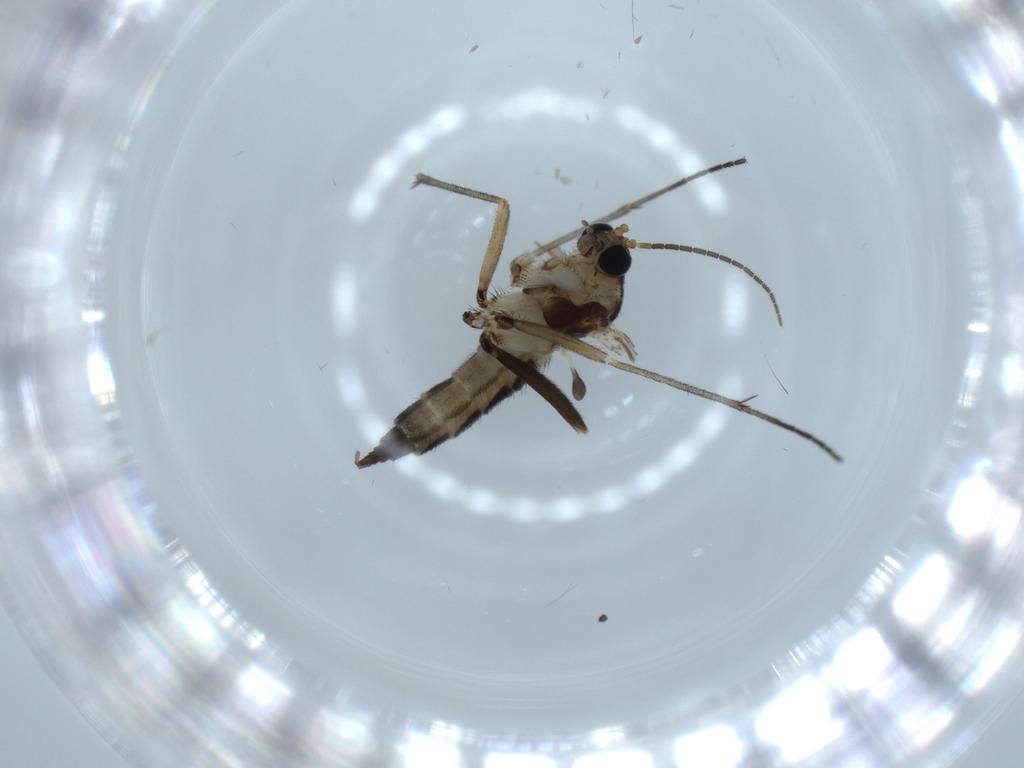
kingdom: Animalia
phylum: Arthropoda
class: Insecta
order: Diptera
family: Sciaridae
